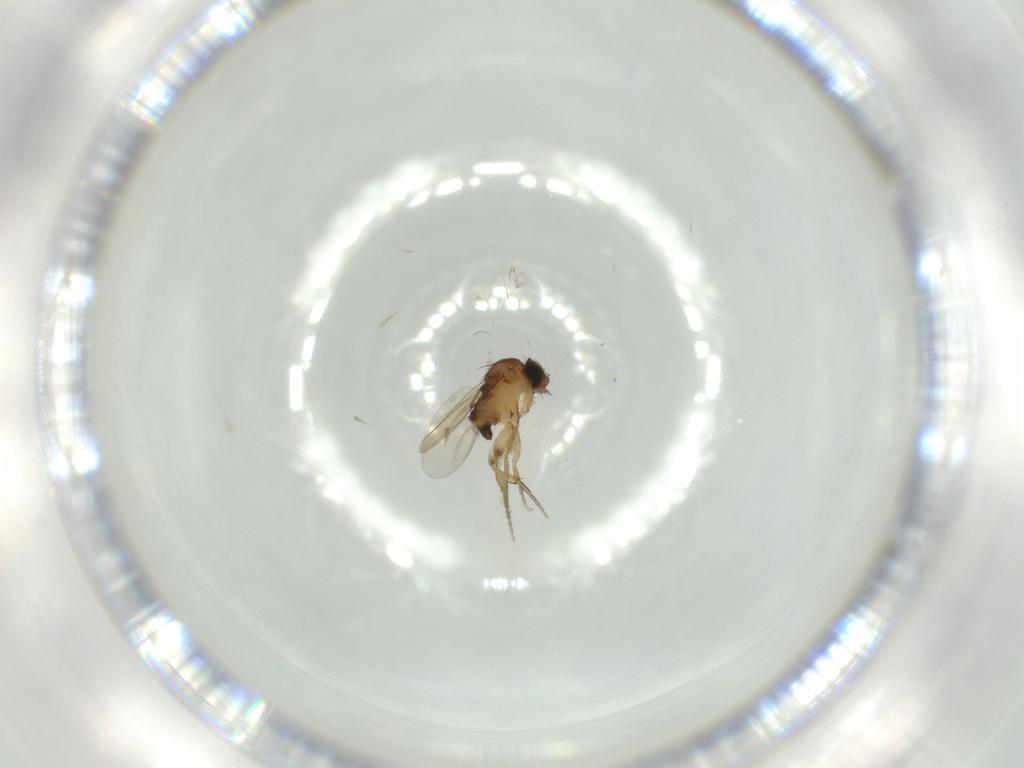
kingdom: Animalia
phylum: Arthropoda
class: Insecta
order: Diptera
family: Phoridae
